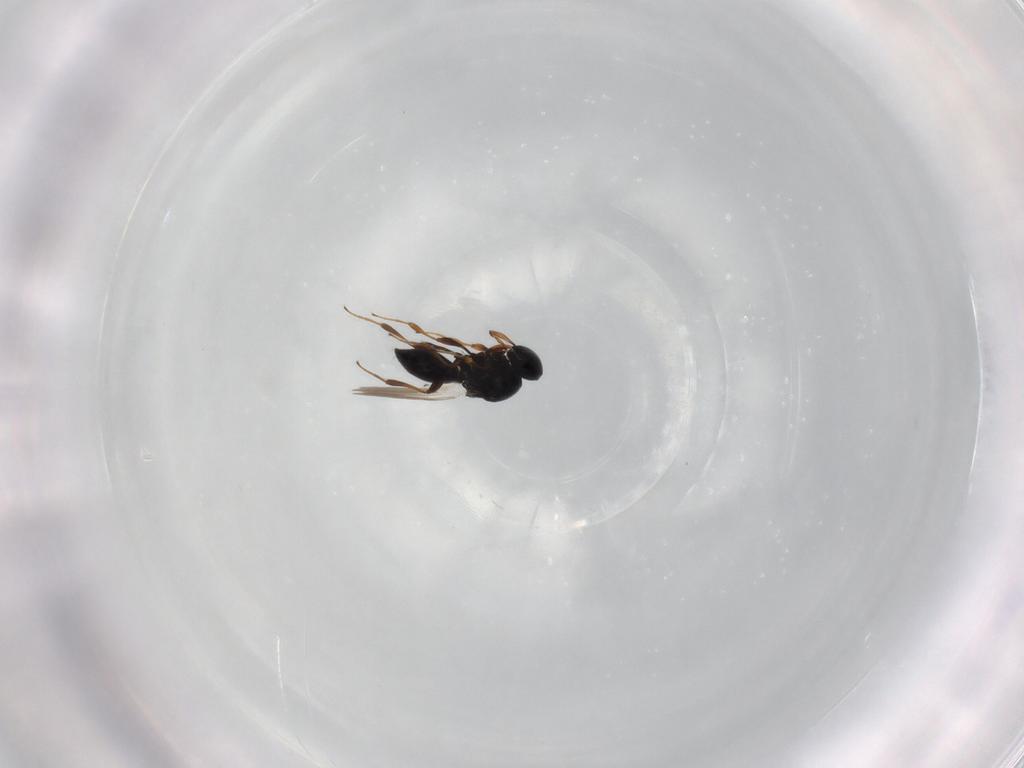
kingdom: Animalia
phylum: Arthropoda
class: Insecta
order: Hymenoptera
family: Platygastridae
